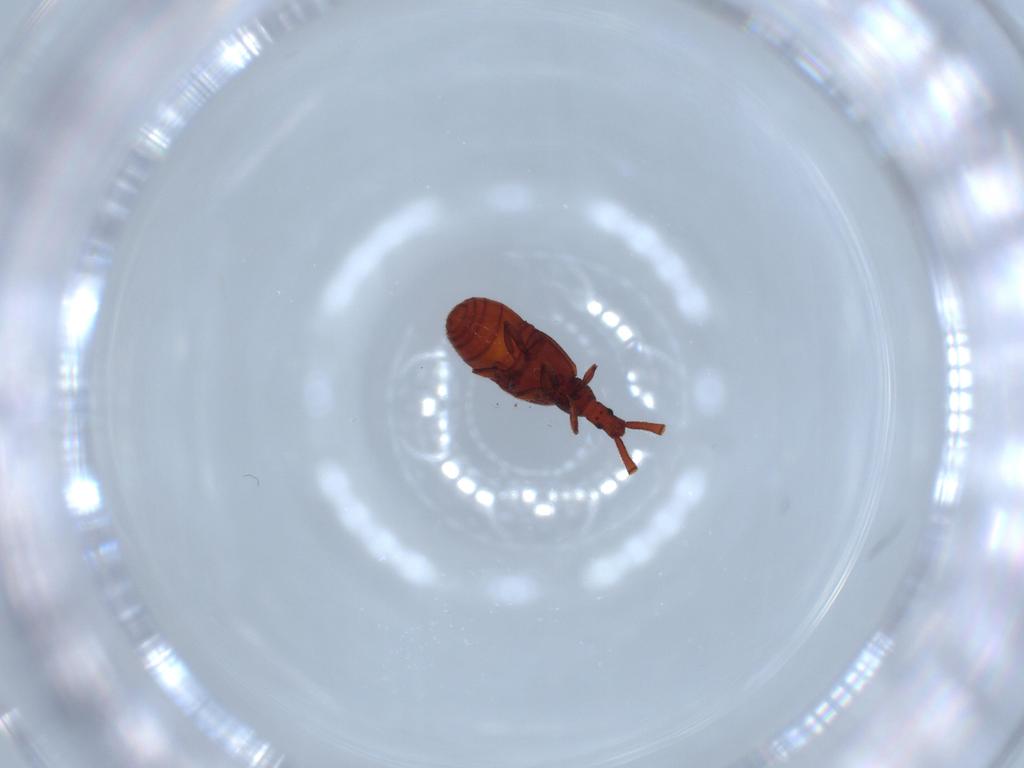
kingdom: Animalia
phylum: Arthropoda
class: Insecta
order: Coleoptera
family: Staphylinidae
